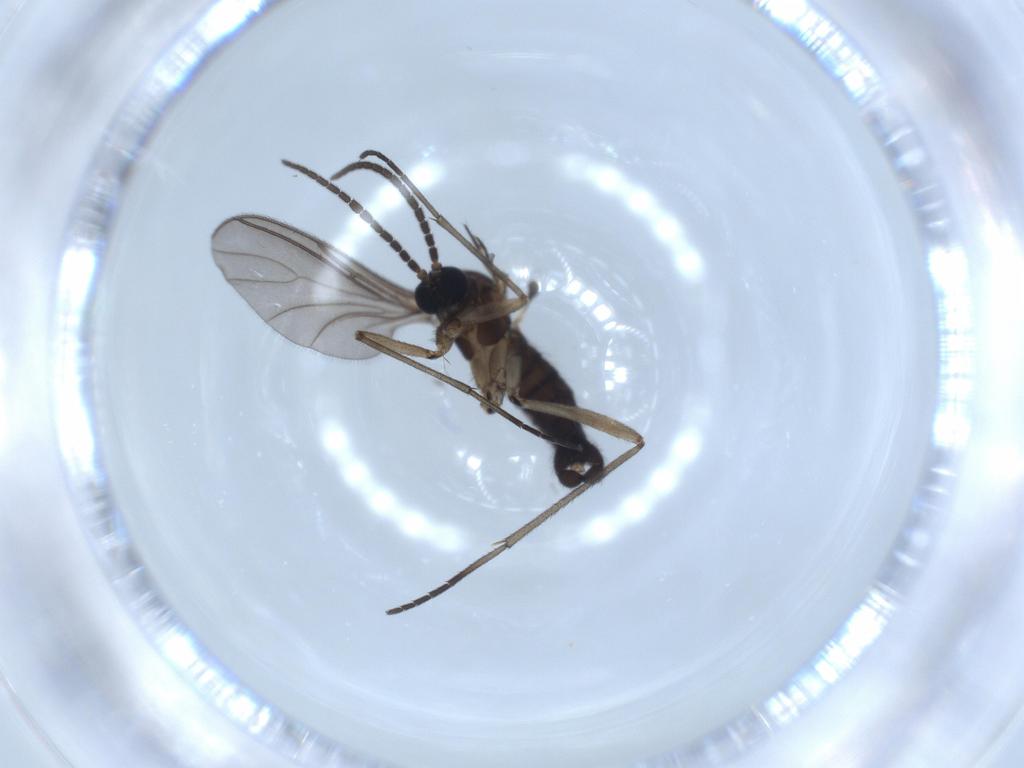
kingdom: Animalia
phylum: Arthropoda
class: Insecta
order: Diptera
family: Sciaridae
